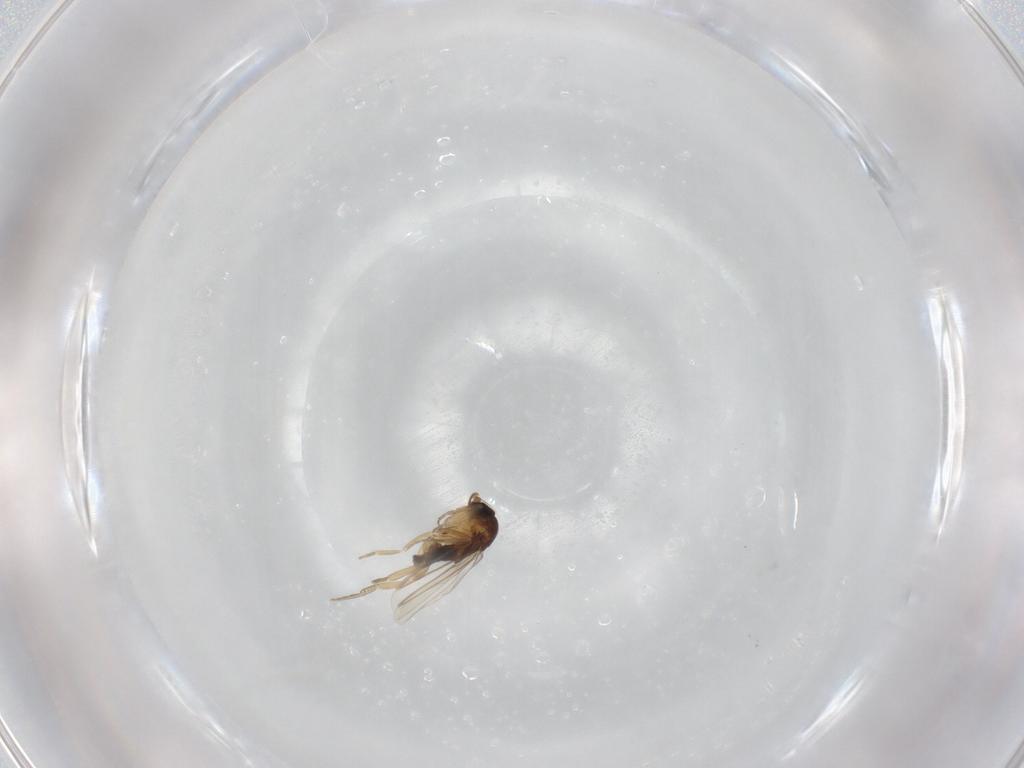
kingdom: Animalia
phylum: Arthropoda
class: Insecta
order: Diptera
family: Phoridae
